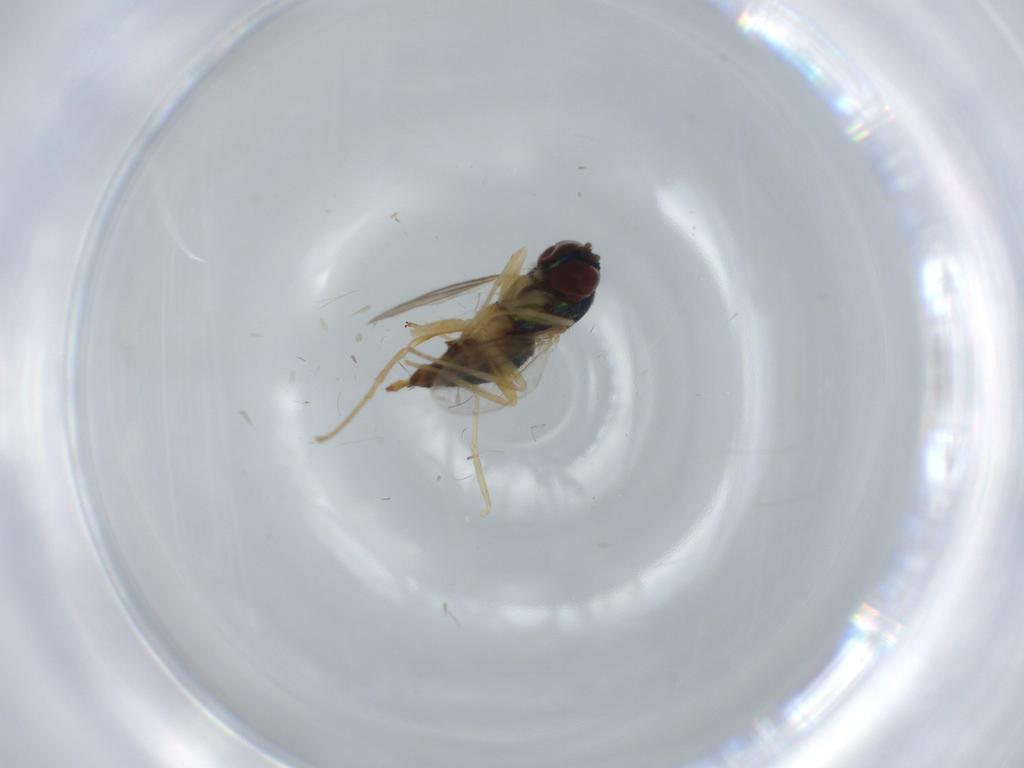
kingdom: Animalia
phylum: Arthropoda
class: Insecta
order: Diptera
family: Dolichopodidae
